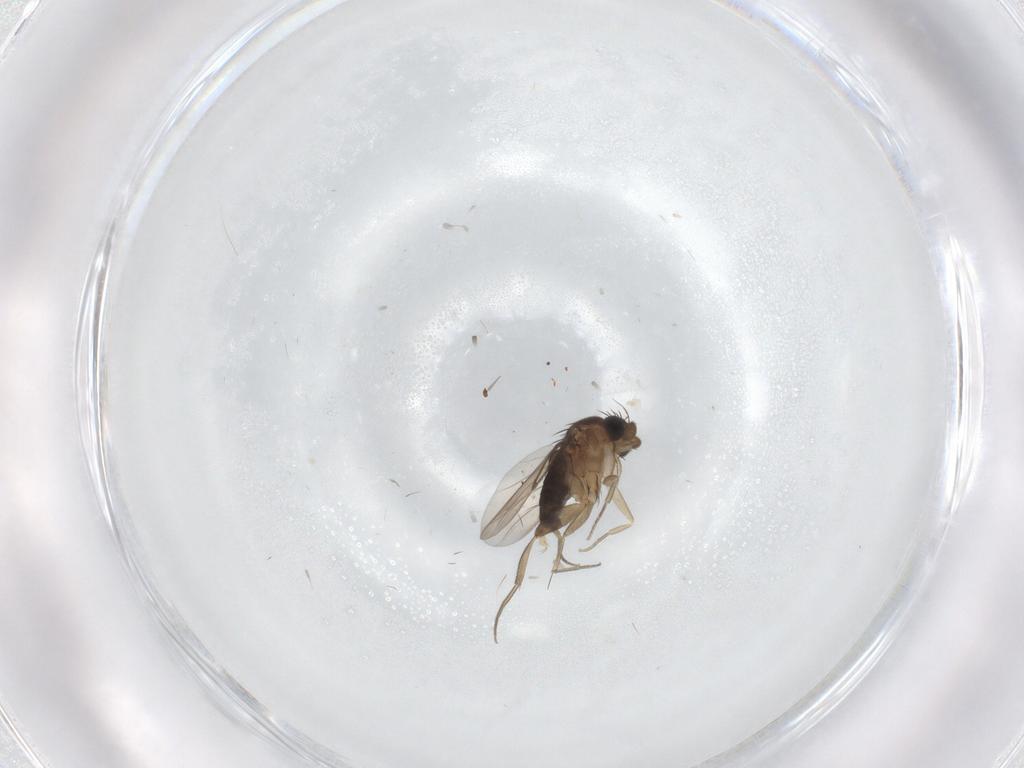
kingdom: Animalia
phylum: Arthropoda
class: Insecta
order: Diptera
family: Phoridae
